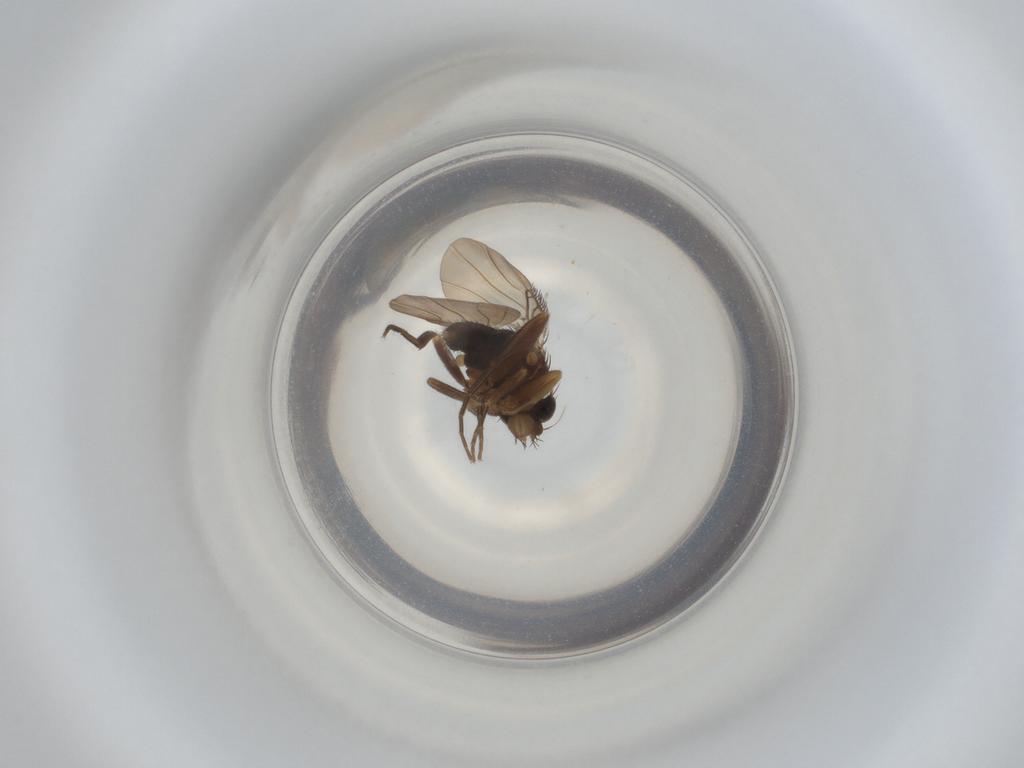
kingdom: Animalia
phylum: Arthropoda
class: Insecta
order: Diptera
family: Phoridae
